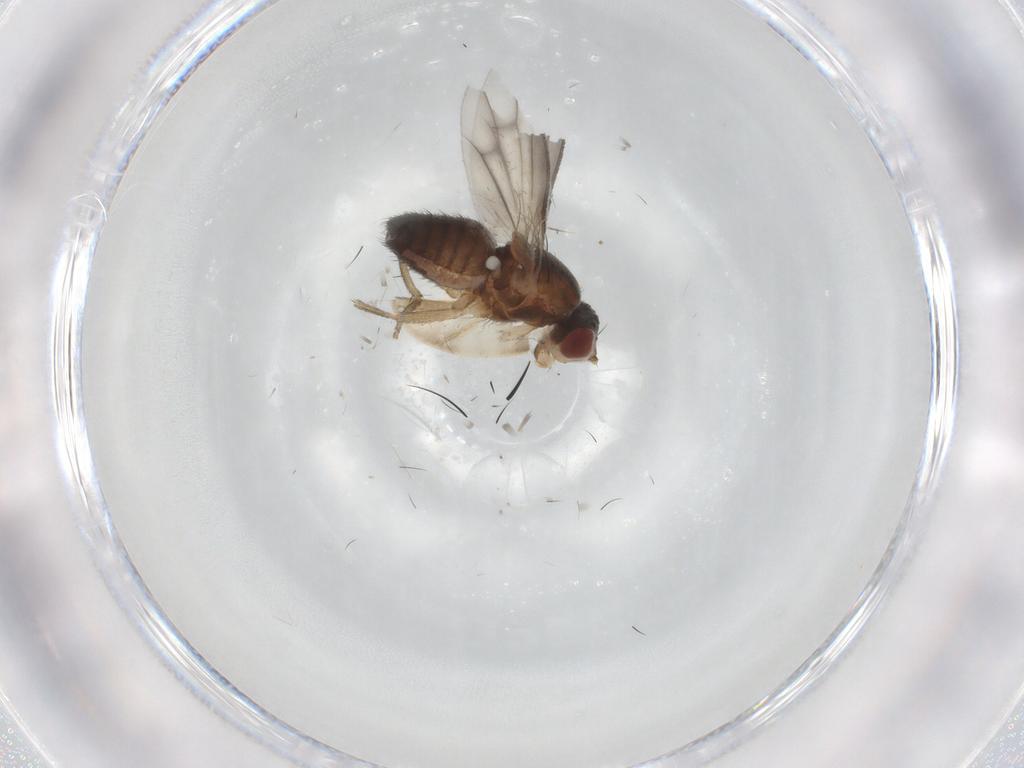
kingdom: Animalia
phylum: Arthropoda
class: Insecta
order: Diptera
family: Heleomyzidae
